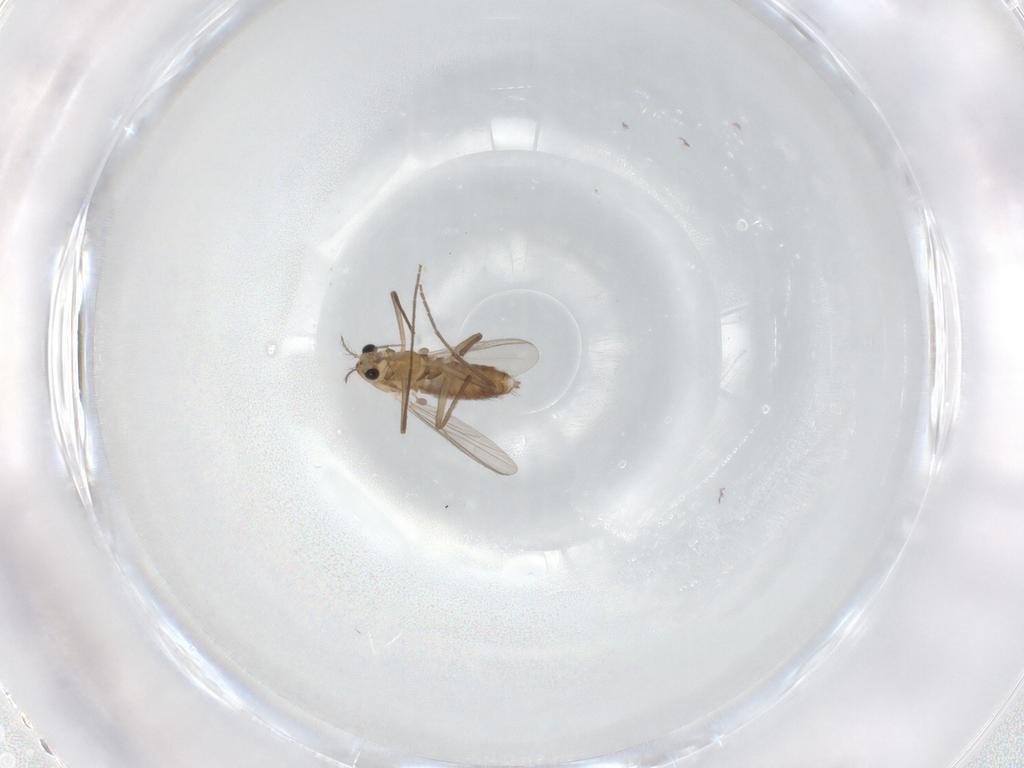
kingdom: Animalia
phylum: Arthropoda
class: Insecta
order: Diptera
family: Chironomidae
